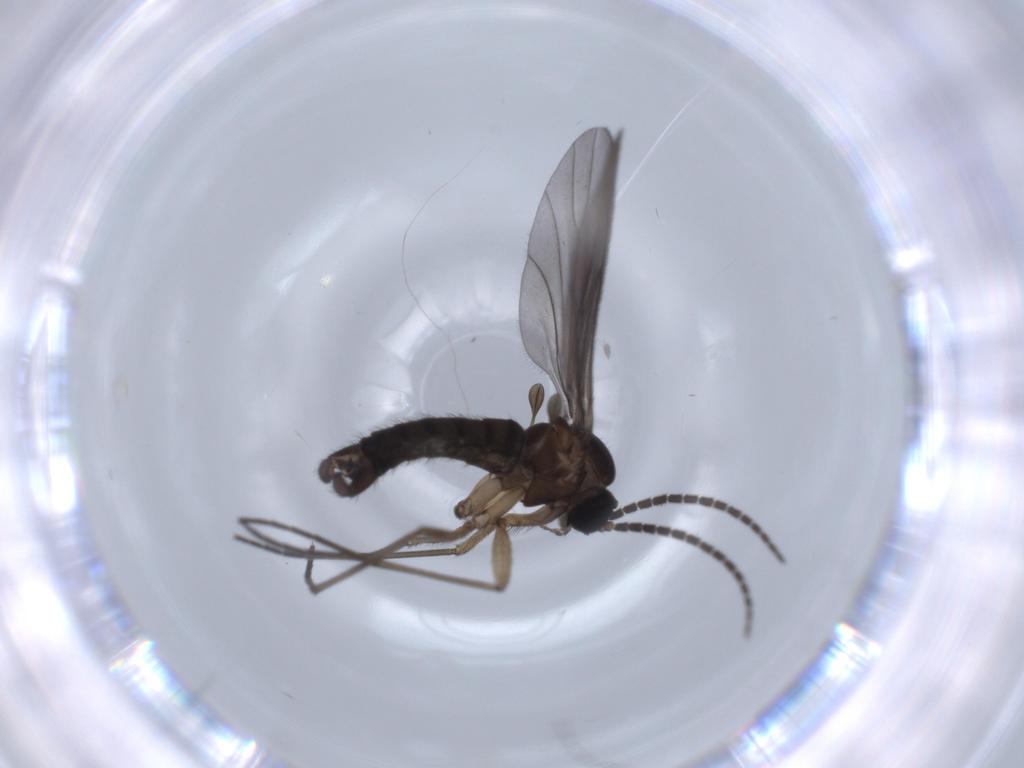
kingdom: Animalia
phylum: Arthropoda
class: Insecta
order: Diptera
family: Sciaridae
